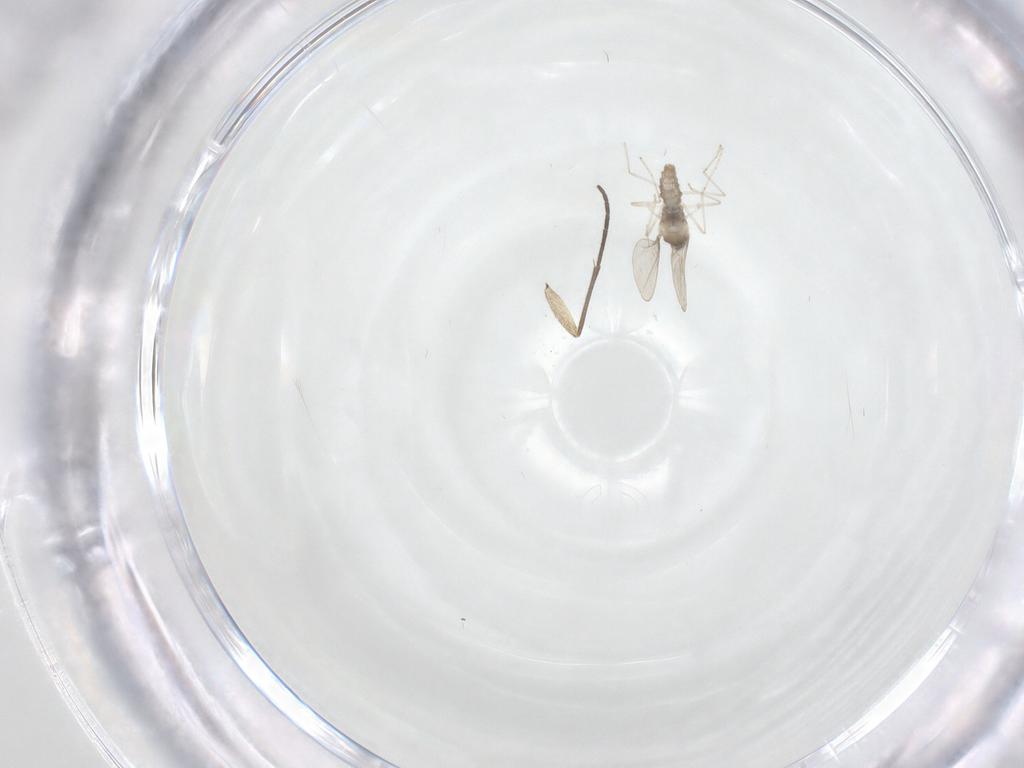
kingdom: Animalia
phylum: Arthropoda
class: Insecta
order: Diptera
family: Cecidomyiidae
